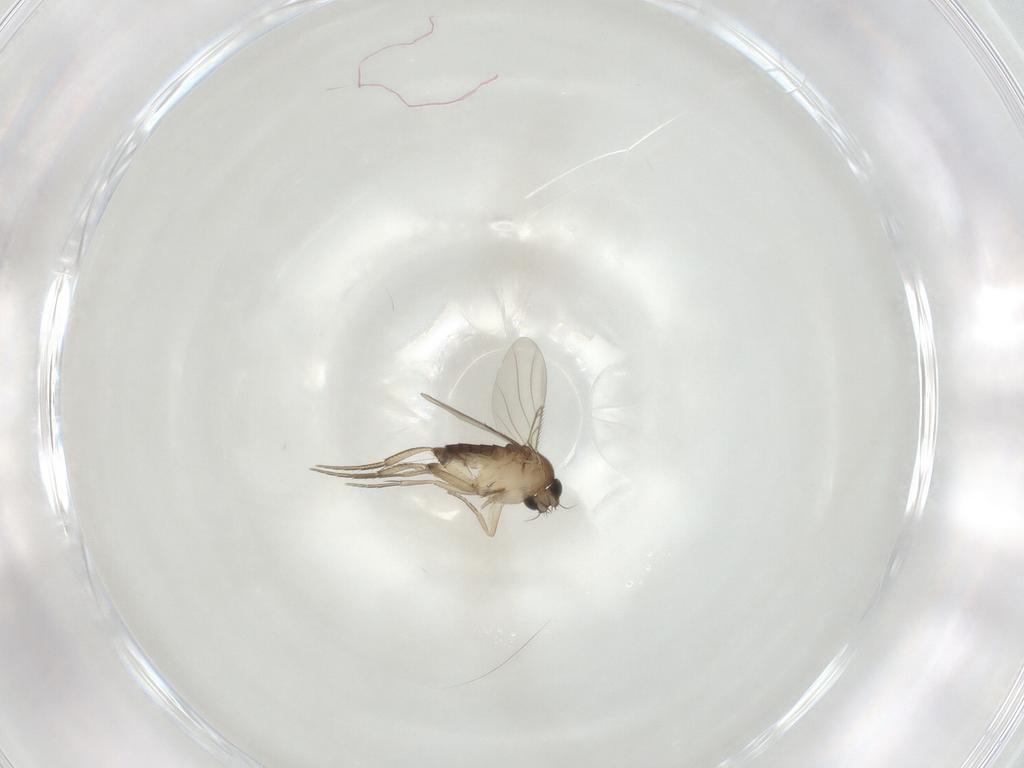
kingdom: Animalia
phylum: Arthropoda
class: Insecta
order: Diptera
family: Phoridae
